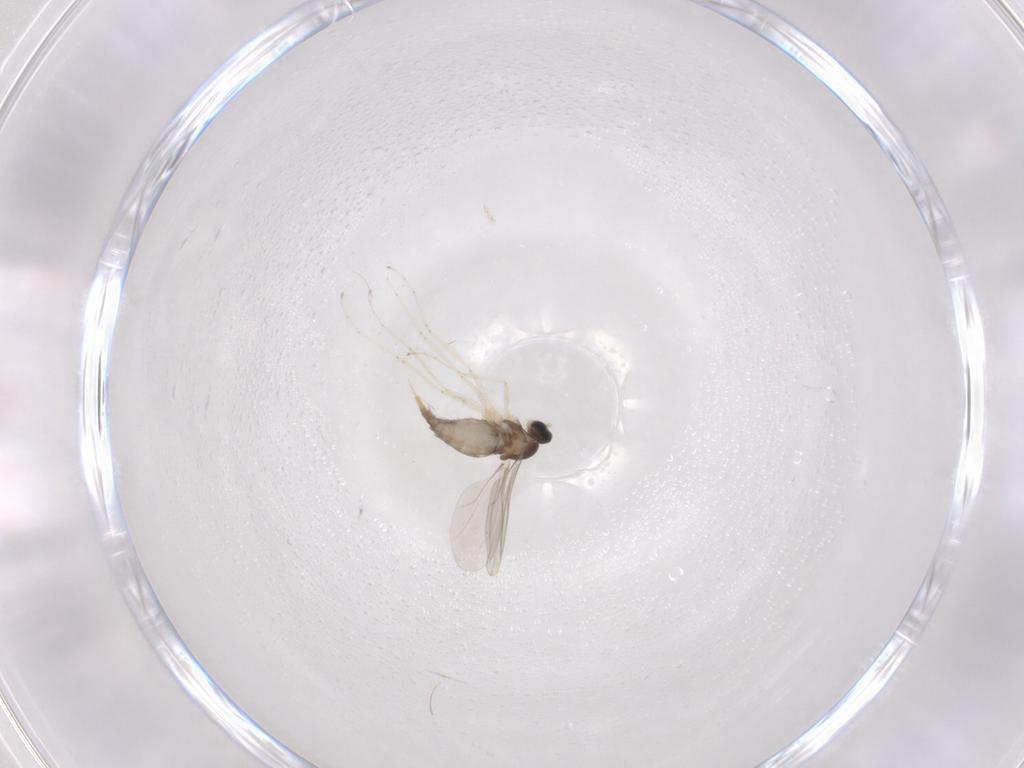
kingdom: Animalia
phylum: Arthropoda
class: Insecta
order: Diptera
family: Cecidomyiidae
